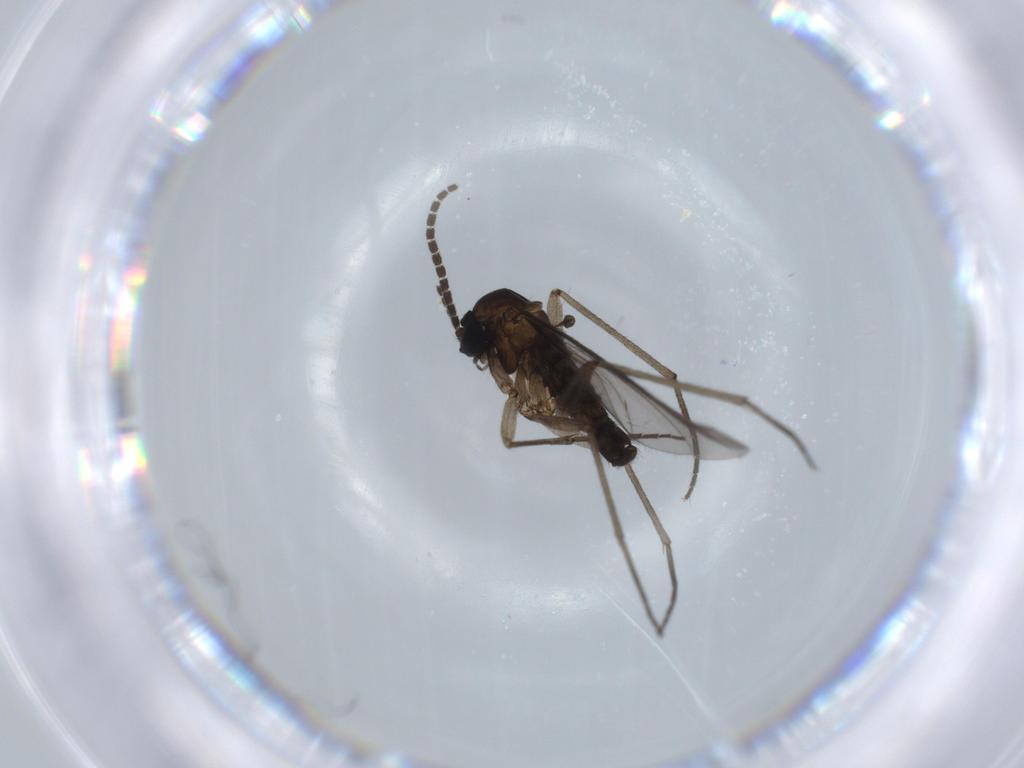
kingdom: Animalia
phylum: Arthropoda
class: Insecta
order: Diptera
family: Sciaridae
